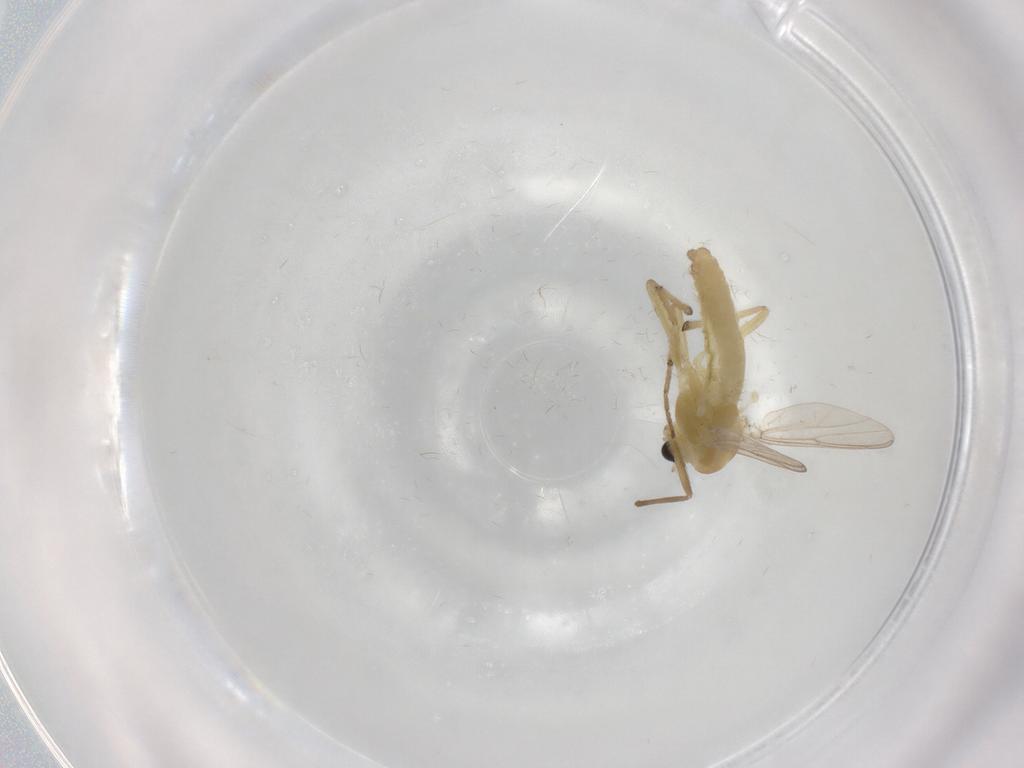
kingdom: Animalia
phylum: Arthropoda
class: Insecta
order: Diptera
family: Chironomidae
